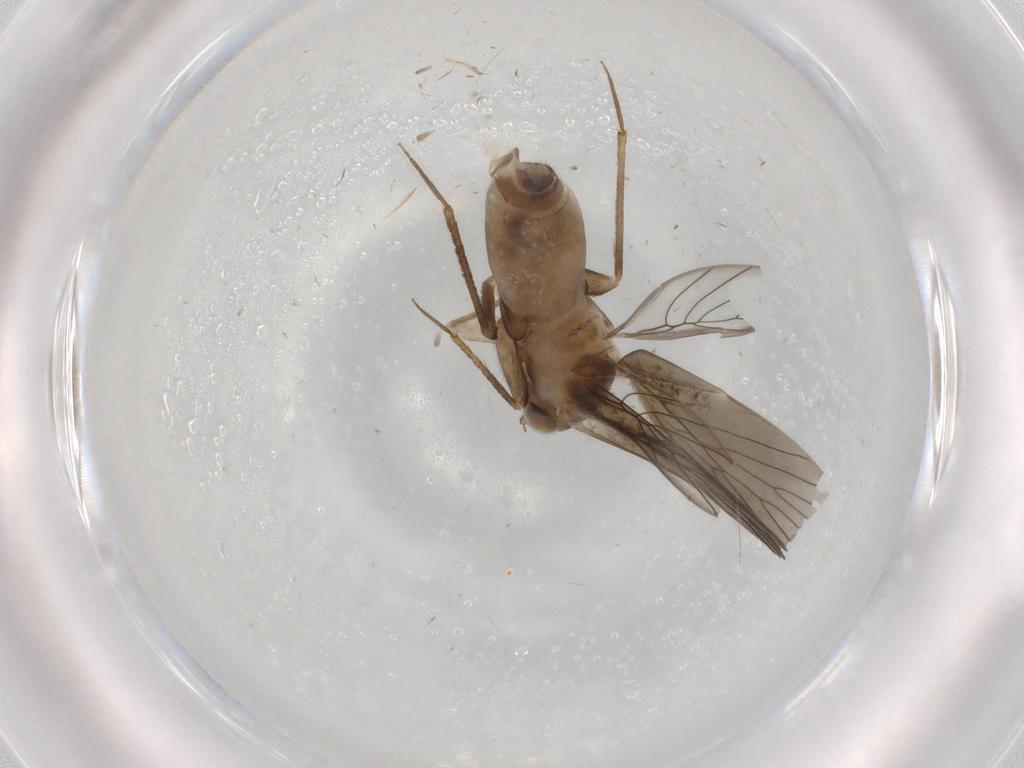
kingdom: Animalia
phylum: Arthropoda
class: Insecta
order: Psocodea
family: Lepidopsocidae
